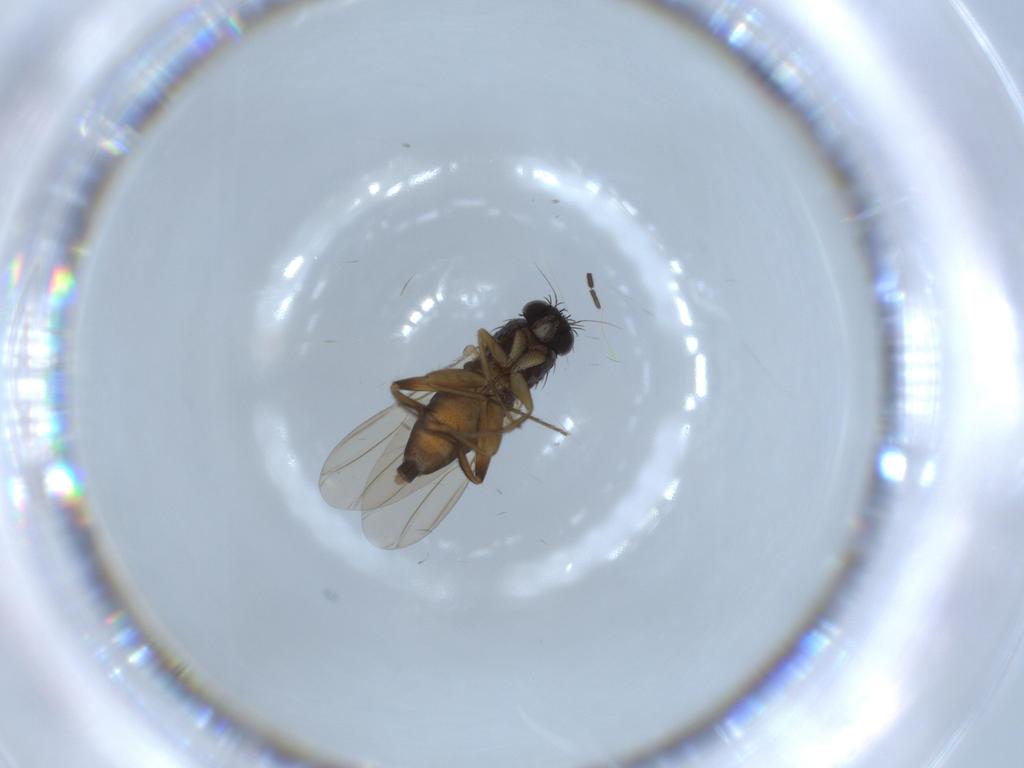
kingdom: Animalia
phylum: Arthropoda
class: Insecta
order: Diptera
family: Phoridae
